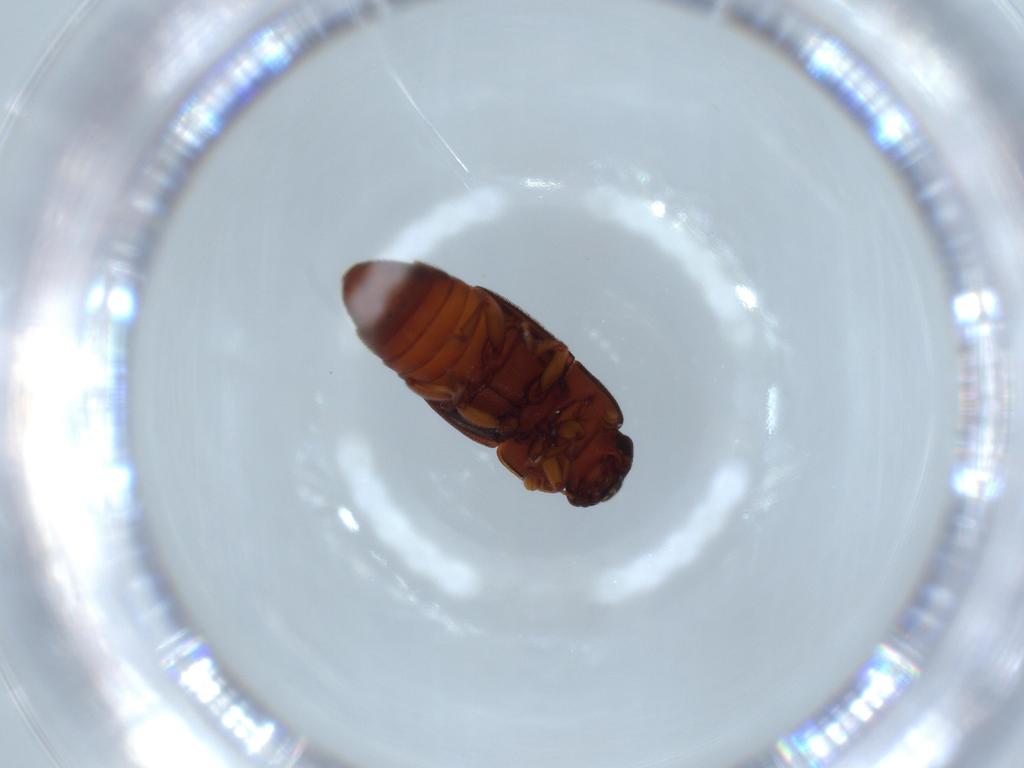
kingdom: Animalia
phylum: Arthropoda
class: Insecta
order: Coleoptera
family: Nitidulidae
